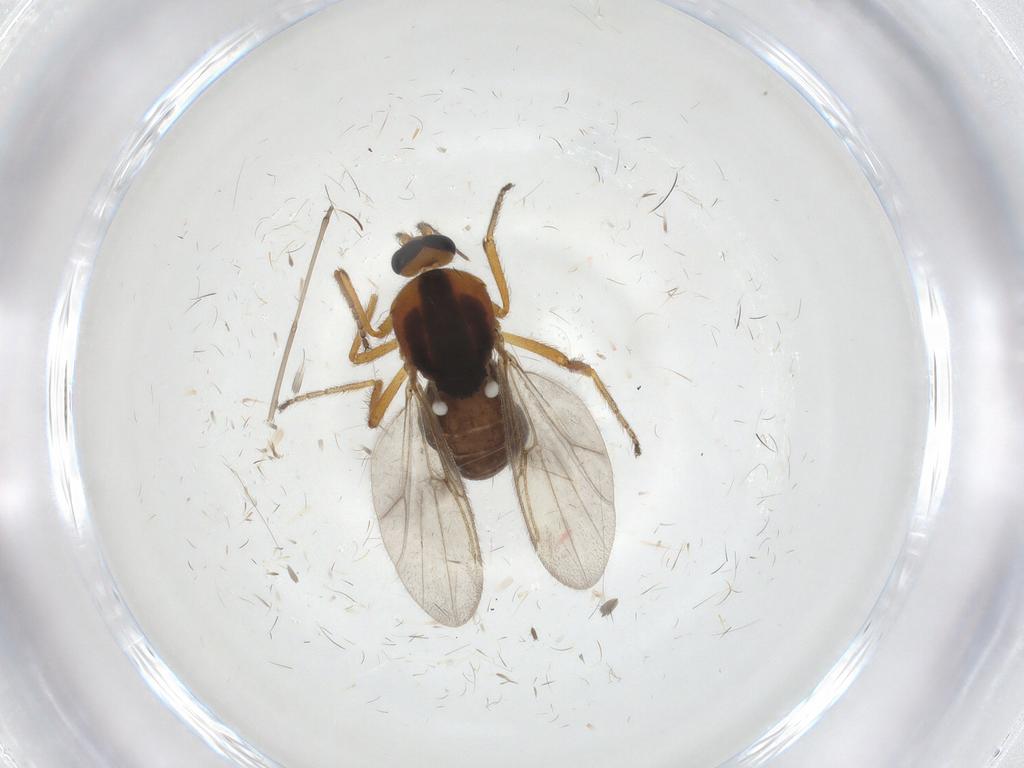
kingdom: Animalia
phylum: Arthropoda
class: Insecta
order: Diptera
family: Ceratopogonidae
